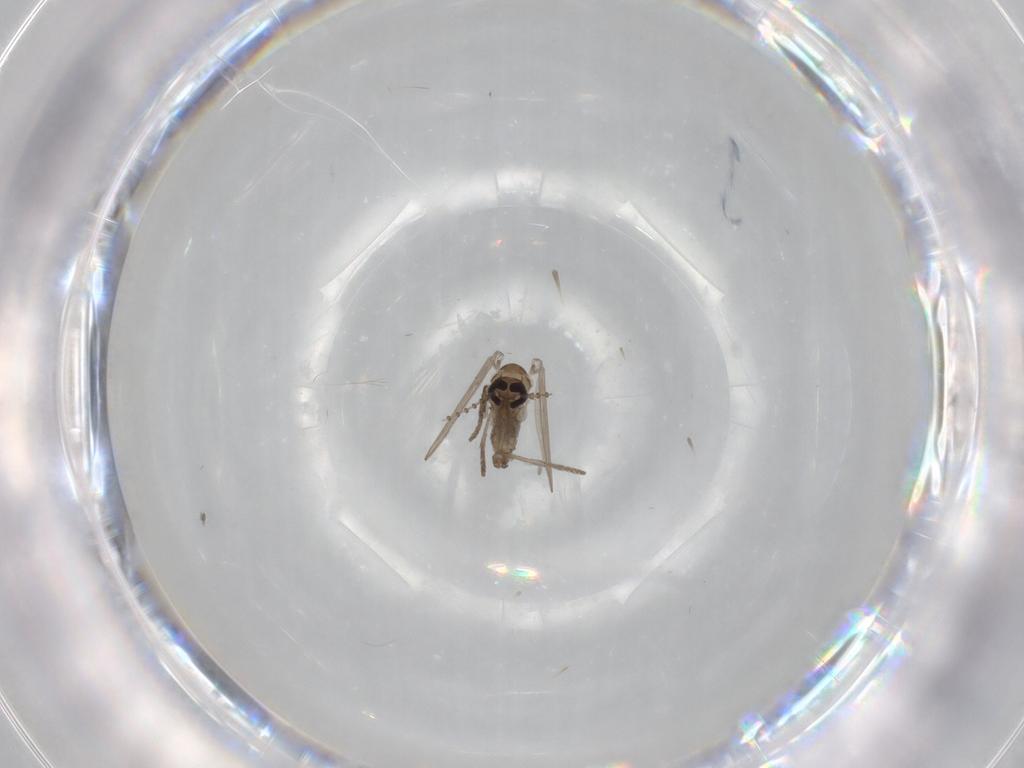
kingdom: Animalia
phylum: Arthropoda
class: Insecta
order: Diptera
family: Psychodidae
